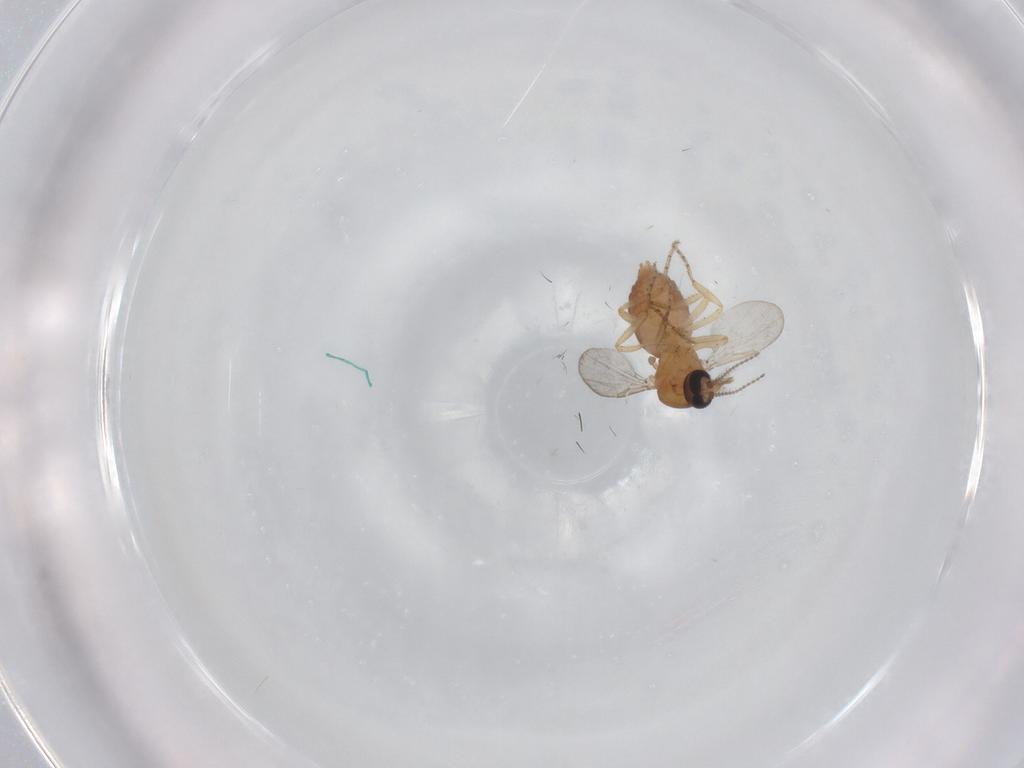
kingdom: Animalia
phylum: Arthropoda
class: Insecta
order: Diptera
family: Ceratopogonidae
